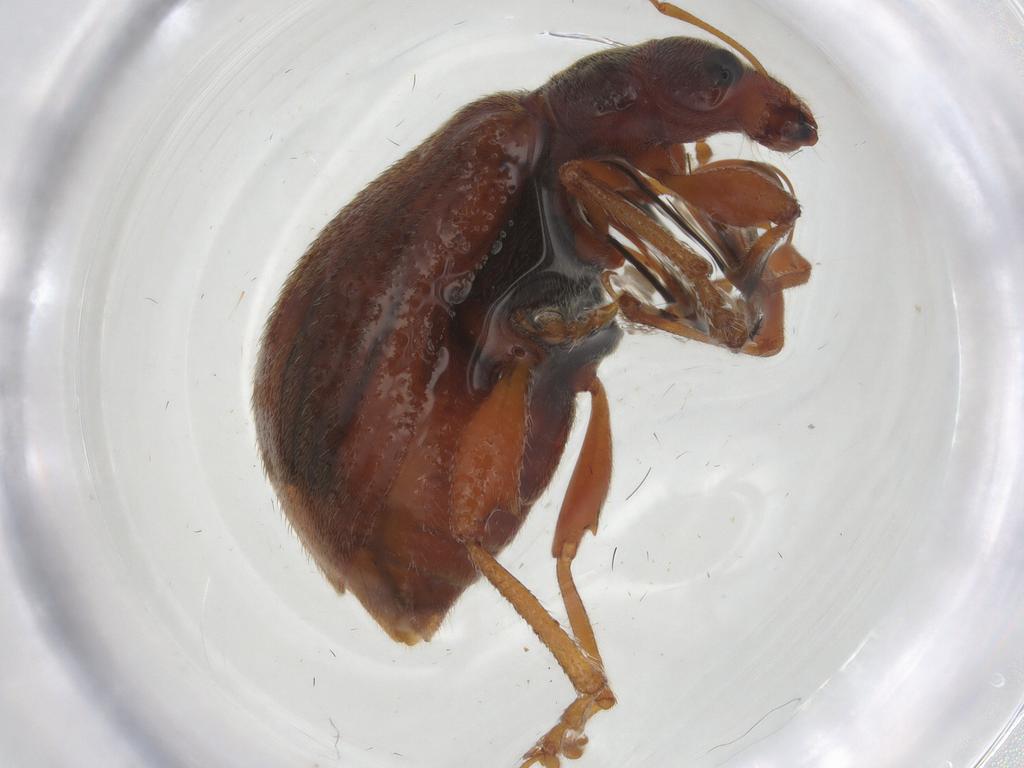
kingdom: Animalia
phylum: Arthropoda
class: Insecta
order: Coleoptera
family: Curculionidae
